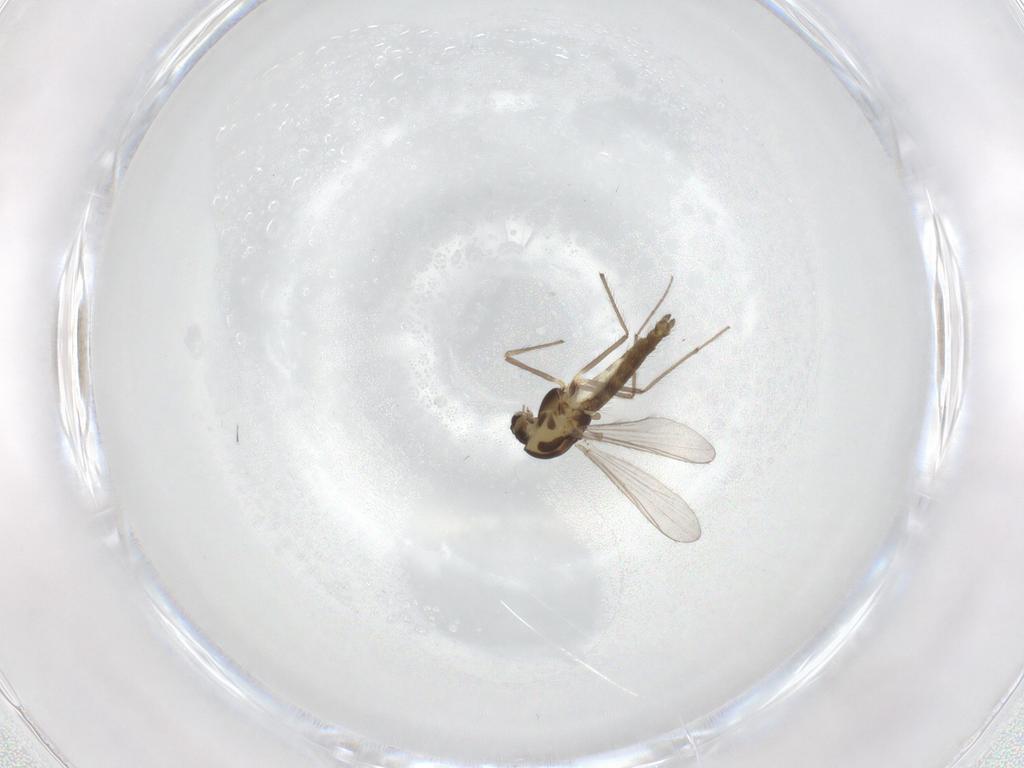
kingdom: Animalia
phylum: Arthropoda
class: Insecta
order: Diptera
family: Chironomidae
